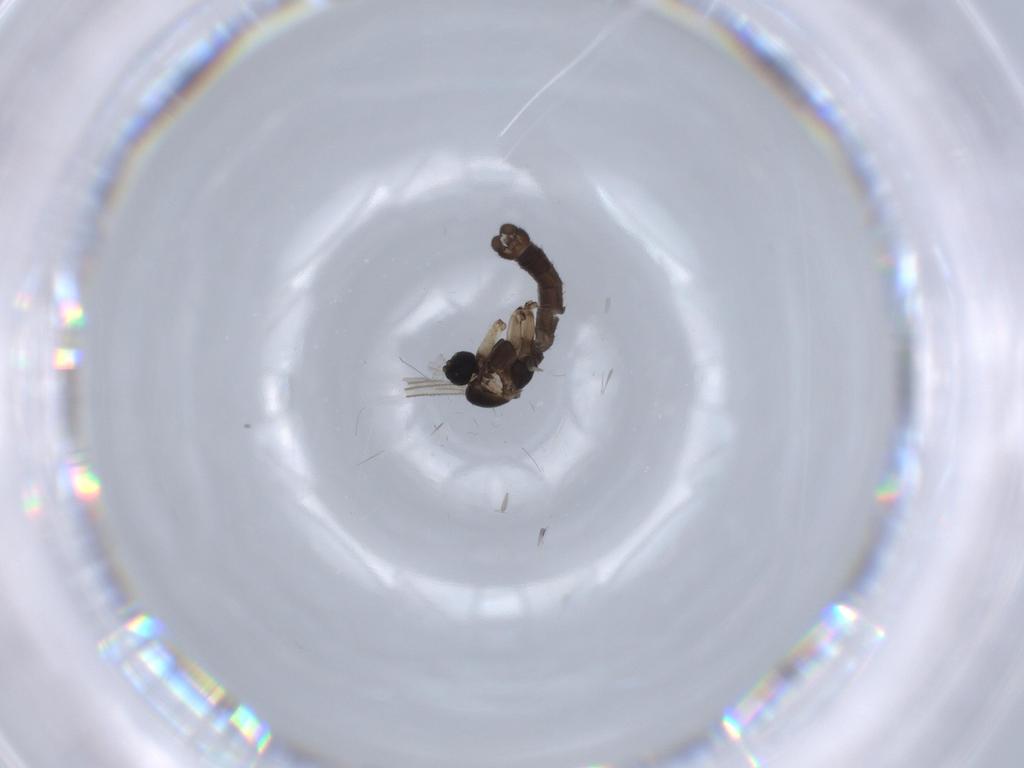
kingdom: Animalia
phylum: Arthropoda
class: Insecta
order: Diptera
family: Sciaridae
